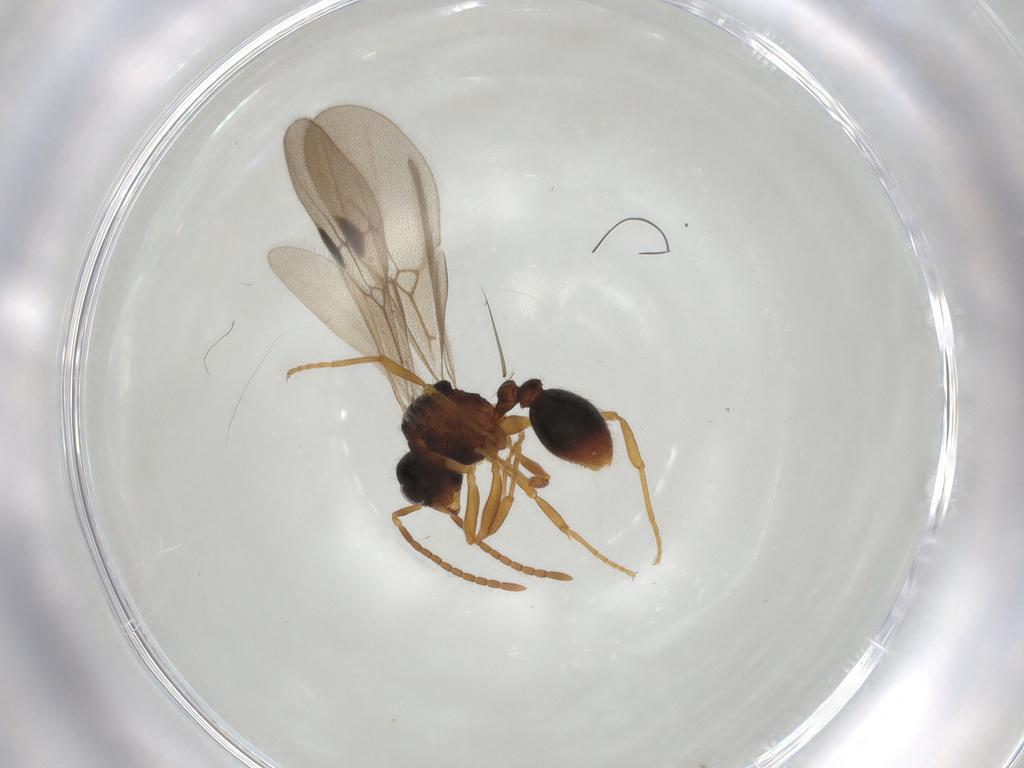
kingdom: Animalia
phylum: Arthropoda
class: Insecta
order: Hymenoptera
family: Formicidae
